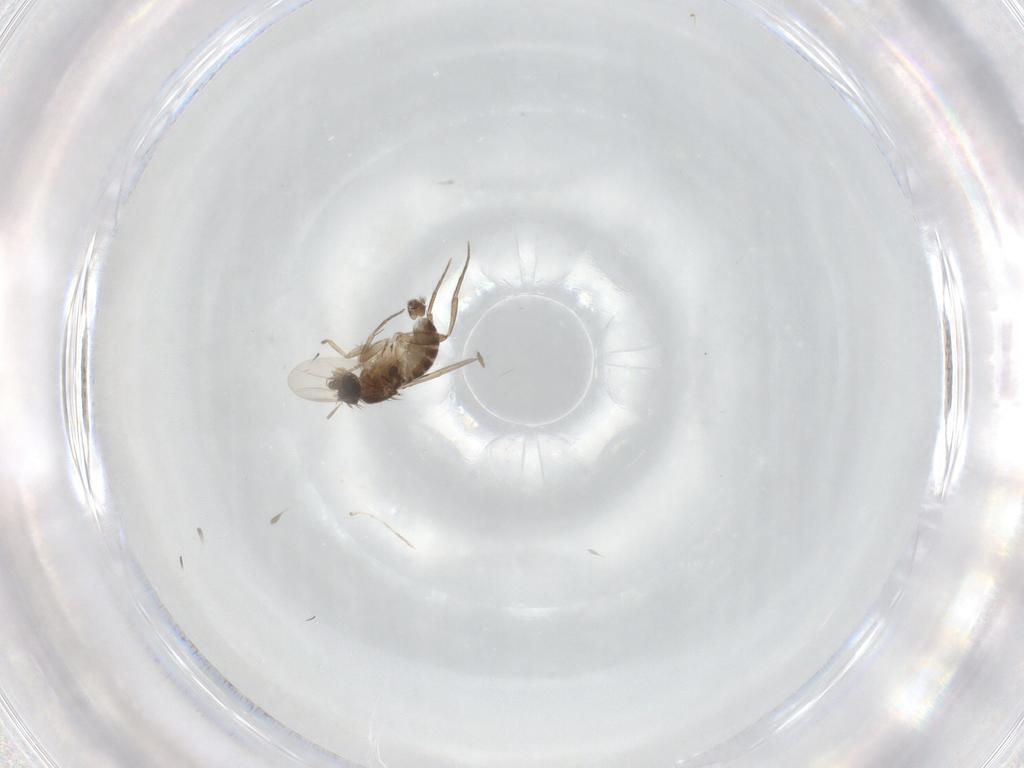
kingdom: Animalia
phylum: Arthropoda
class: Insecta
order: Diptera
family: Phoridae
